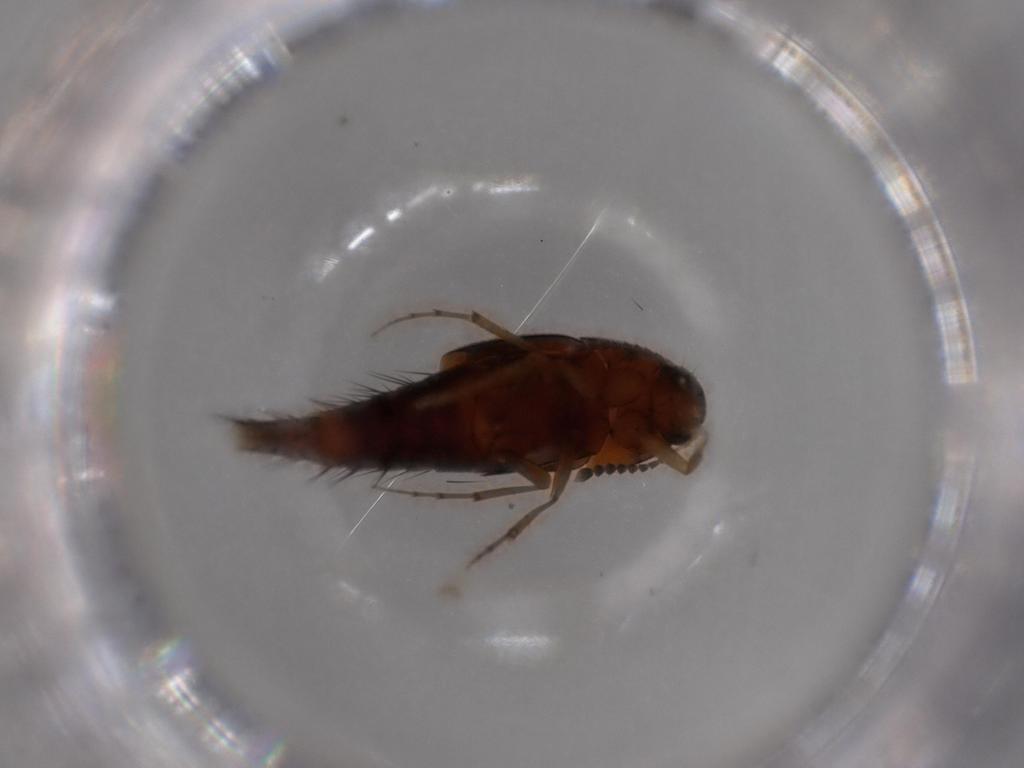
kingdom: Animalia
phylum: Arthropoda
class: Insecta
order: Coleoptera
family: Staphylinidae
